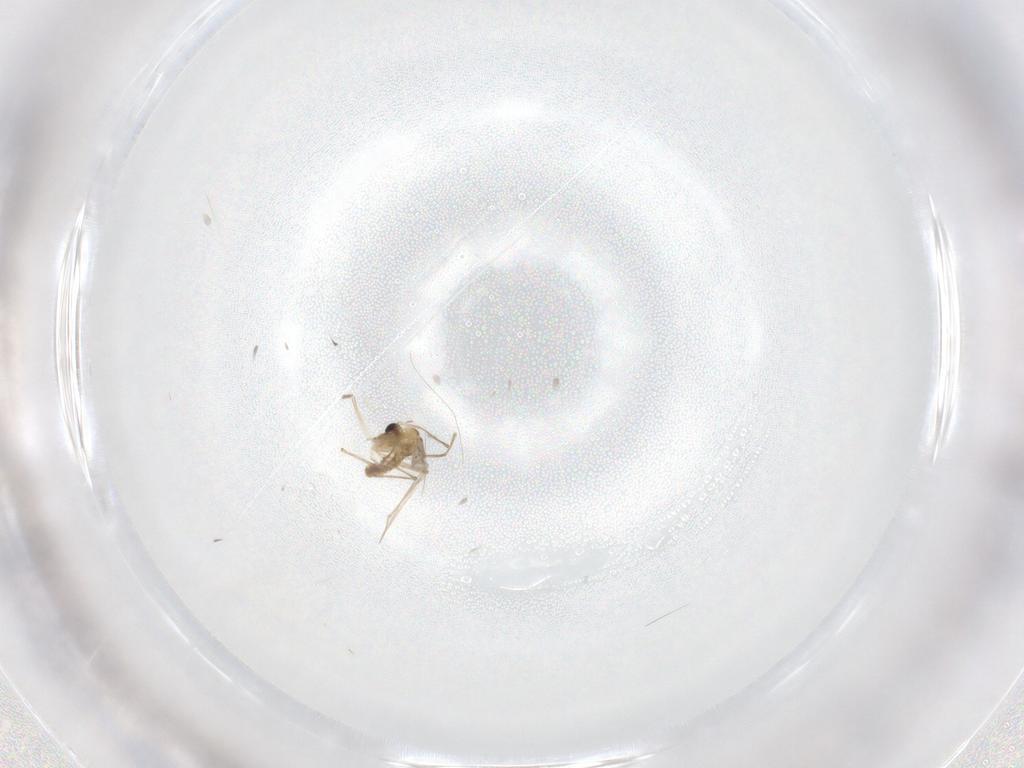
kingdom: Animalia
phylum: Arthropoda
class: Insecta
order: Diptera
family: Chironomidae
